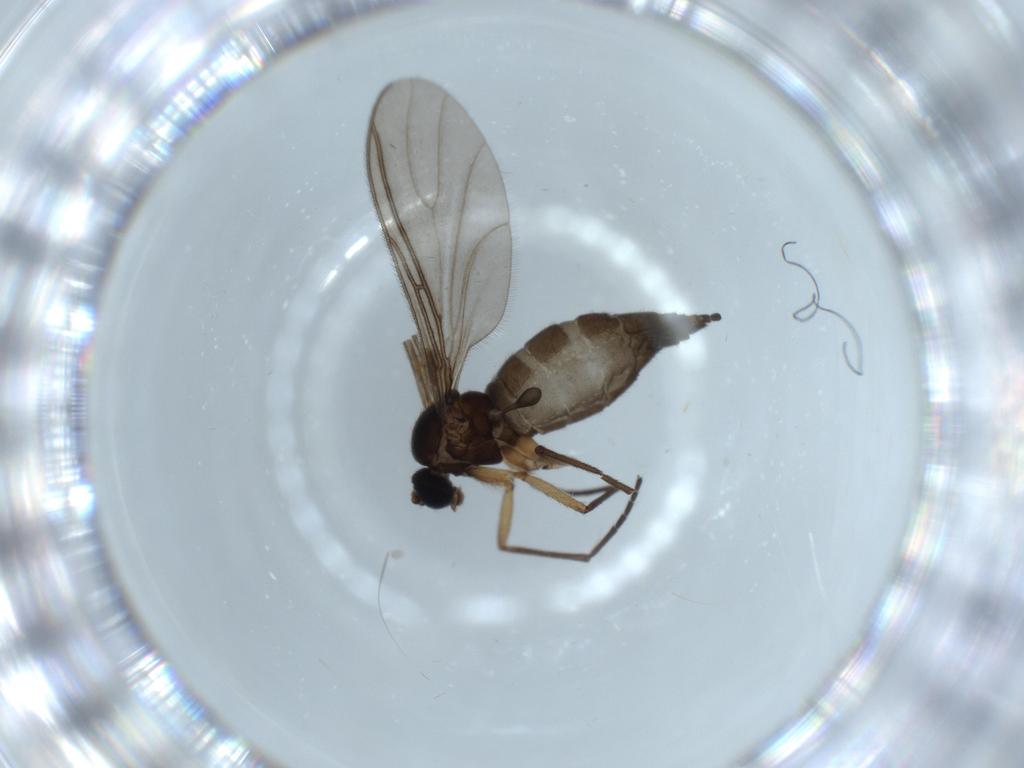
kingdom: Animalia
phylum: Arthropoda
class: Insecta
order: Diptera
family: Sciaridae
